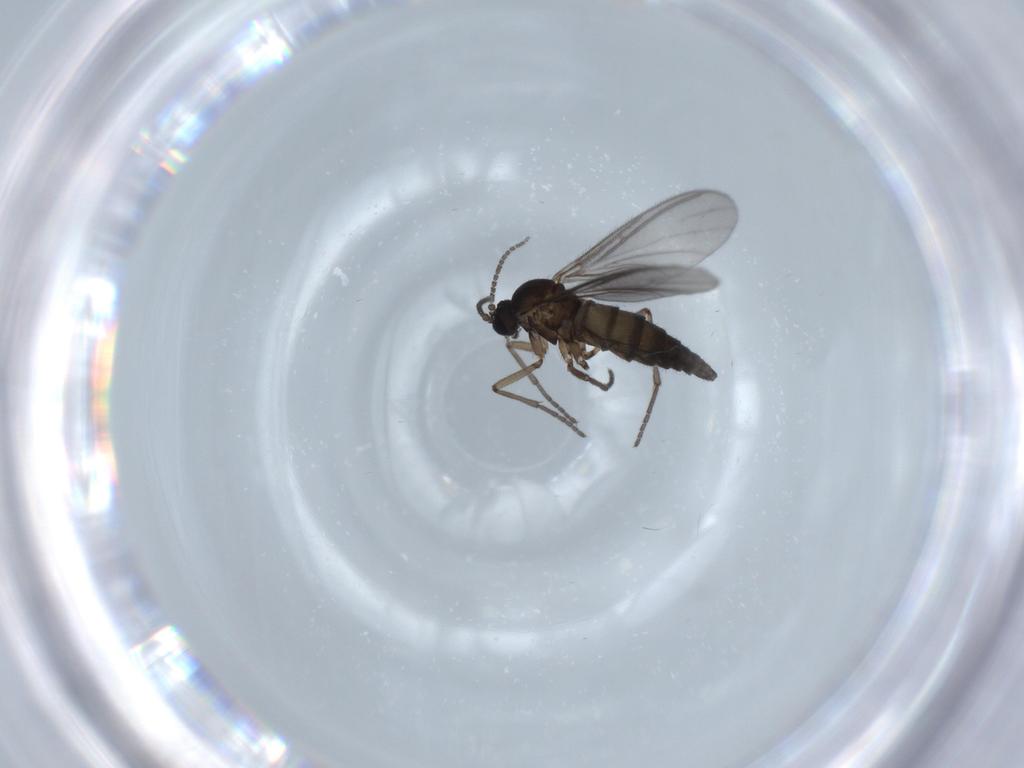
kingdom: Animalia
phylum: Arthropoda
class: Insecta
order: Diptera
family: Sciaridae
